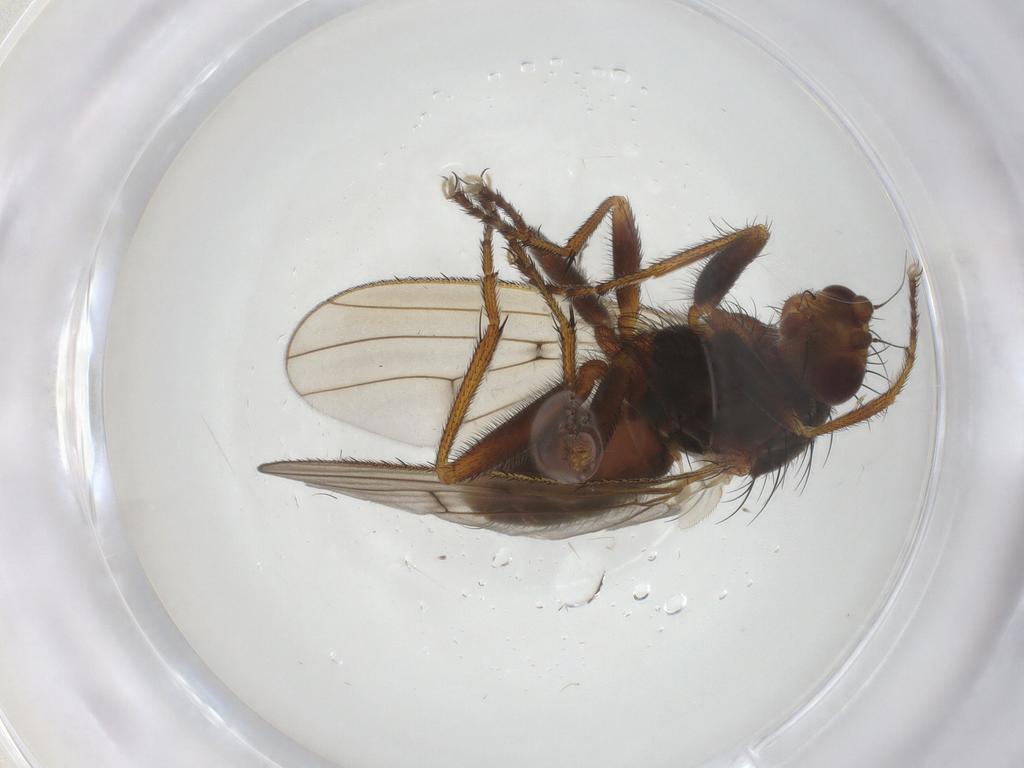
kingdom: Animalia
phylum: Arthropoda
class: Insecta
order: Diptera
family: Heleomyzidae
